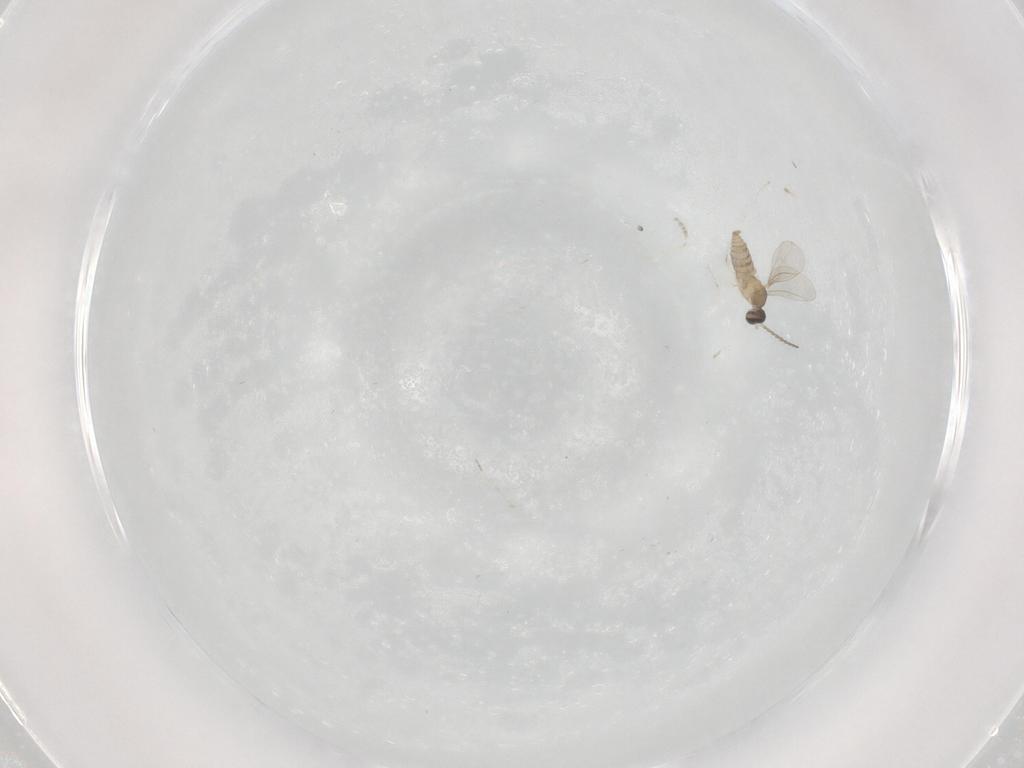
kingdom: Animalia
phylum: Arthropoda
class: Insecta
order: Diptera
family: Cecidomyiidae
